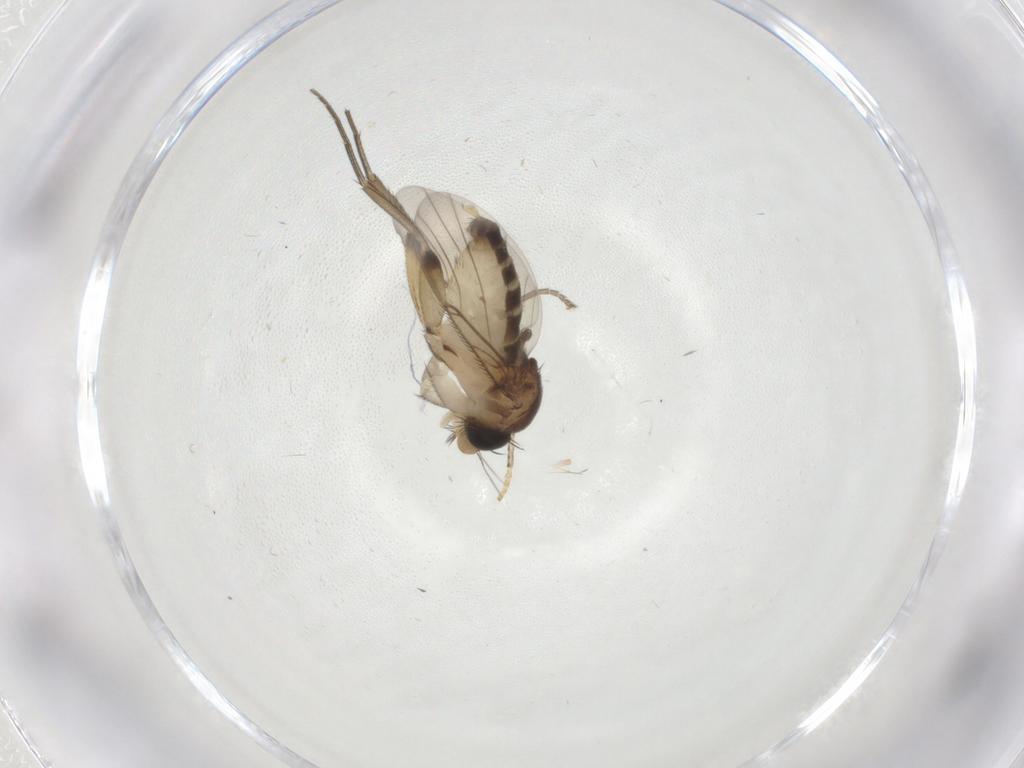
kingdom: Animalia
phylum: Arthropoda
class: Insecta
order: Diptera
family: Phoridae
